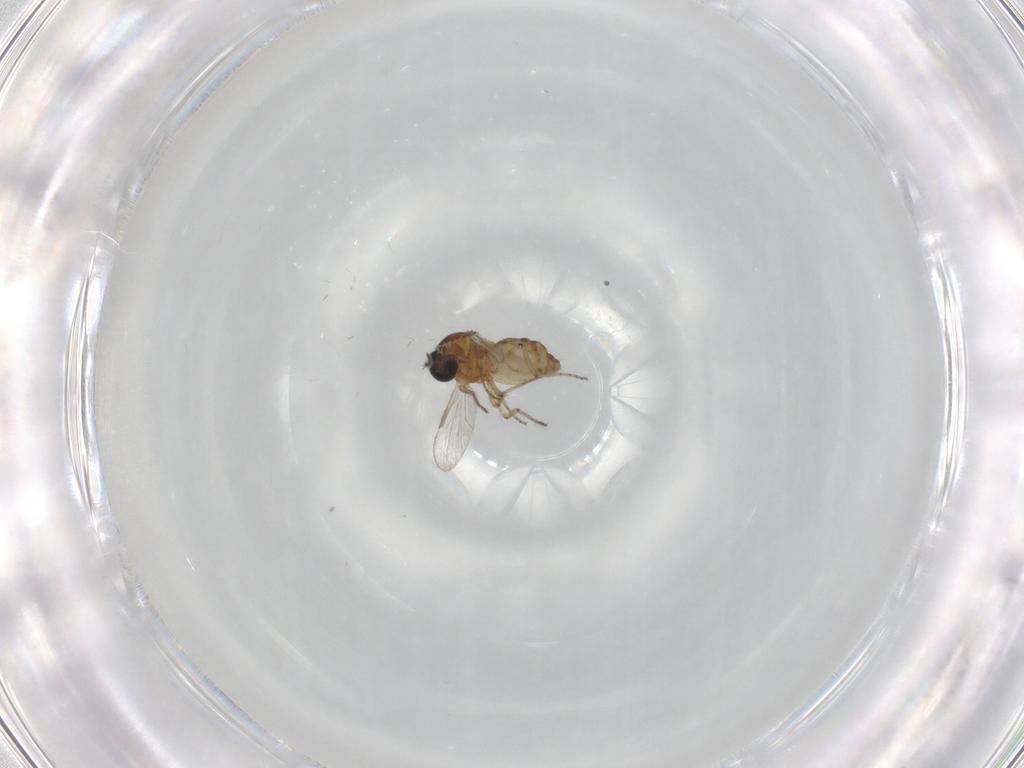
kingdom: Animalia
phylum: Arthropoda
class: Insecta
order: Diptera
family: Ceratopogonidae
